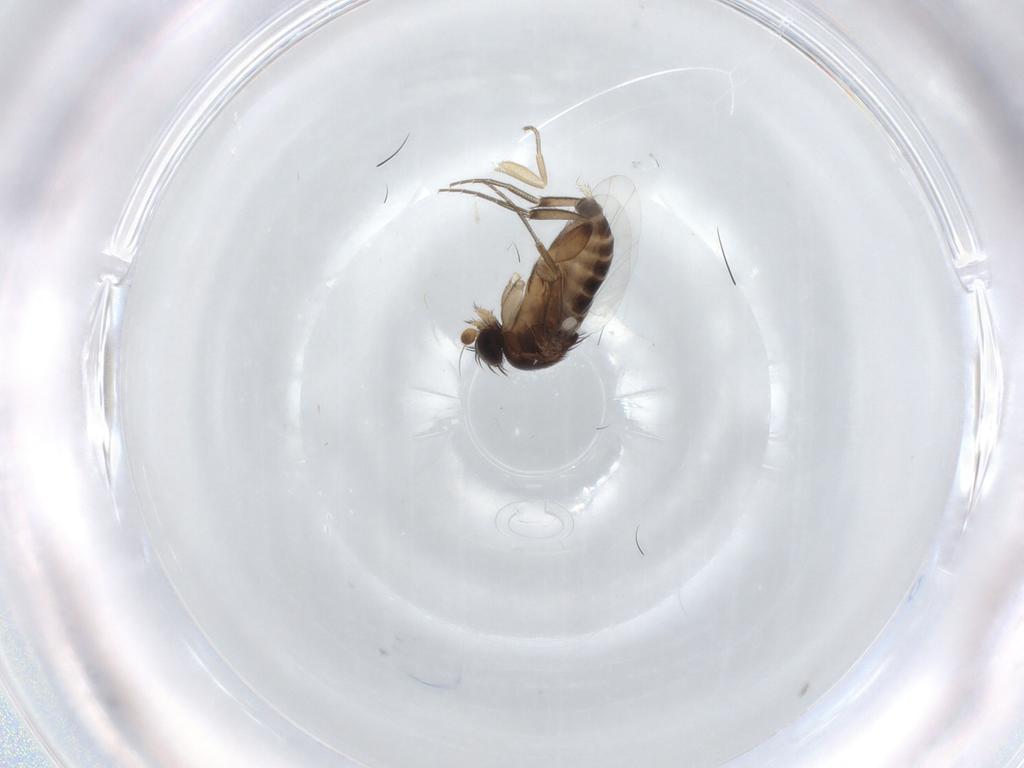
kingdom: Animalia
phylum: Arthropoda
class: Insecta
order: Diptera
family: Phoridae
